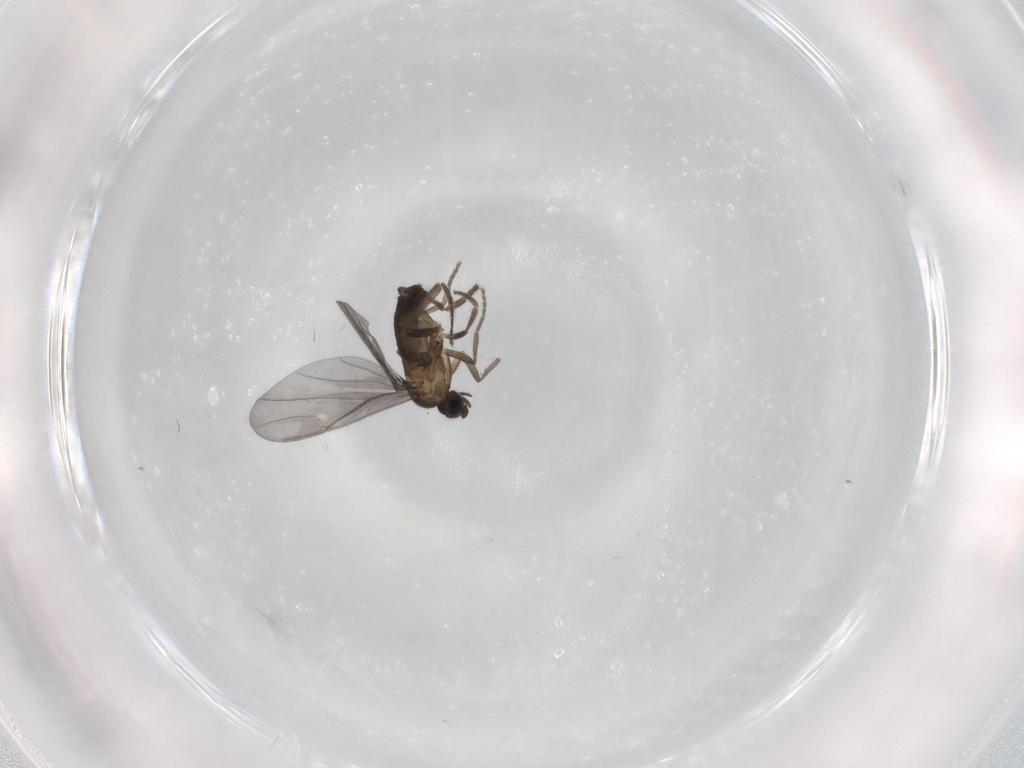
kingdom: Animalia
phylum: Arthropoda
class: Insecta
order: Diptera
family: Phoridae
